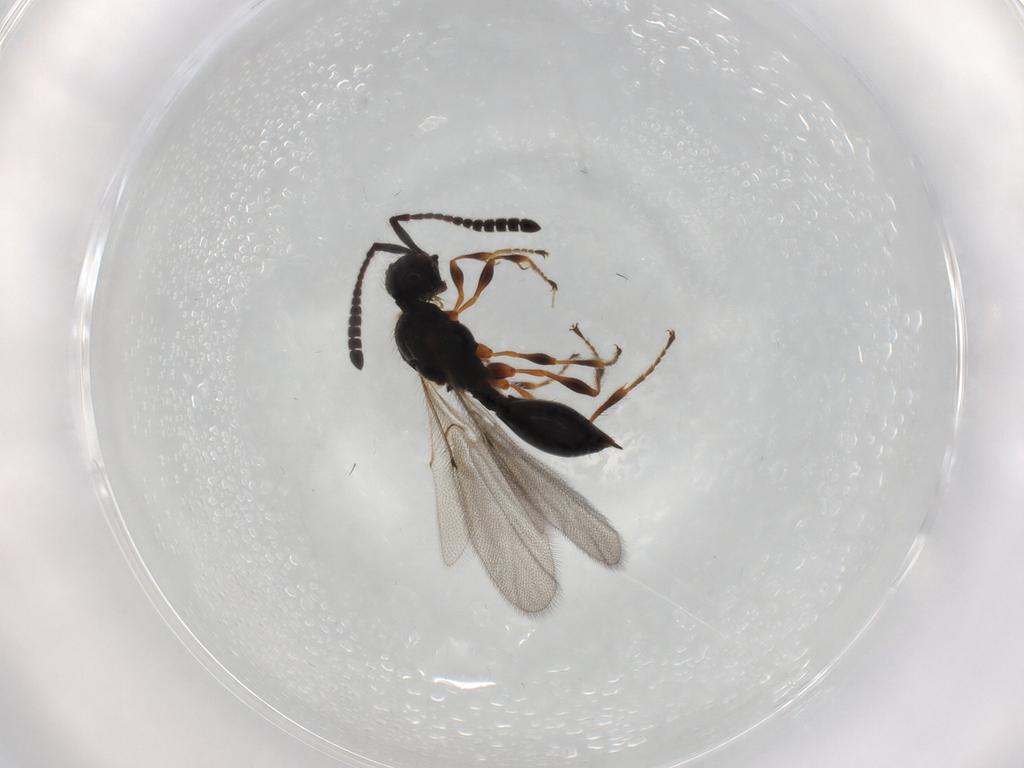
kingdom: Animalia
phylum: Arthropoda
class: Insecta
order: Hymenoptera
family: Diapriidae
